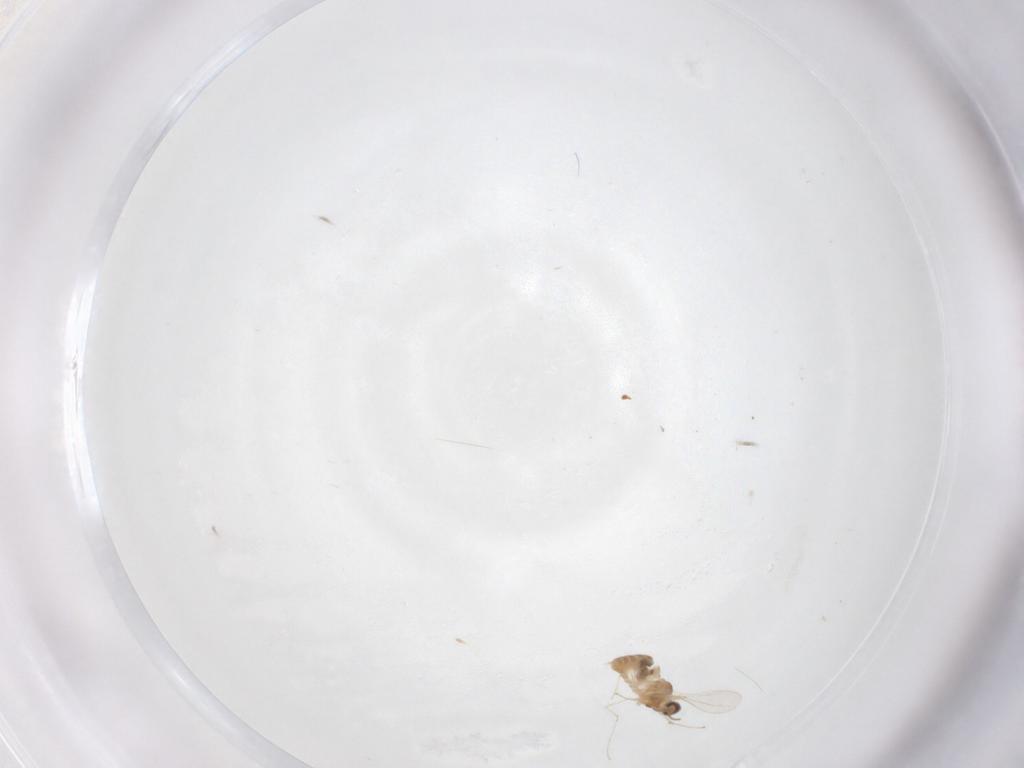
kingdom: Animalia
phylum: Arthropoda
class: Insecta
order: Diptera
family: Cecidomyiidae
